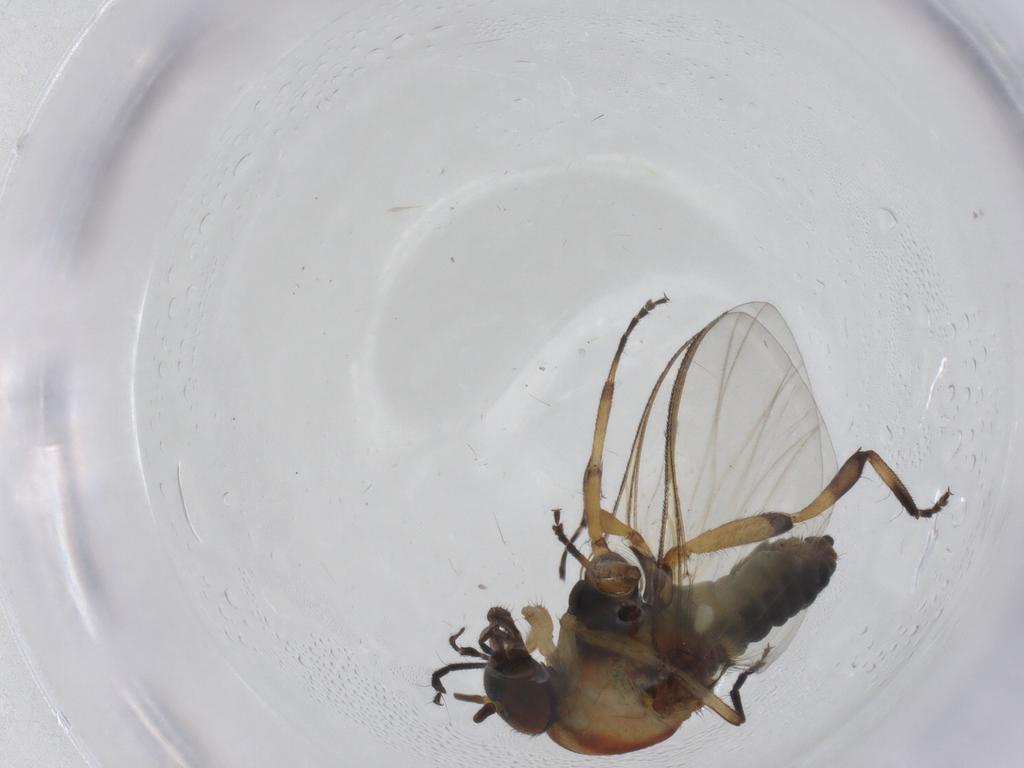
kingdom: Animalia
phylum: Arthropoda
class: Insecta
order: Diptera
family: Simuliidae
